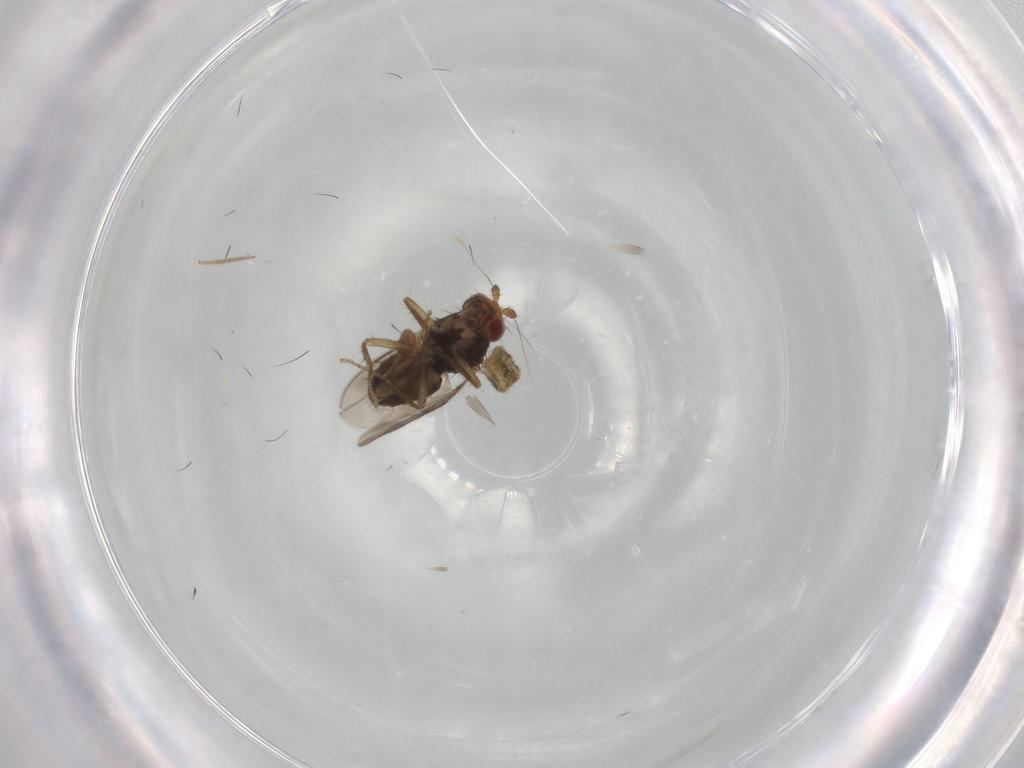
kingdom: Animalia
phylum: Arthropoda
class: Insecta
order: Diptera
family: Sphaeroceridae
